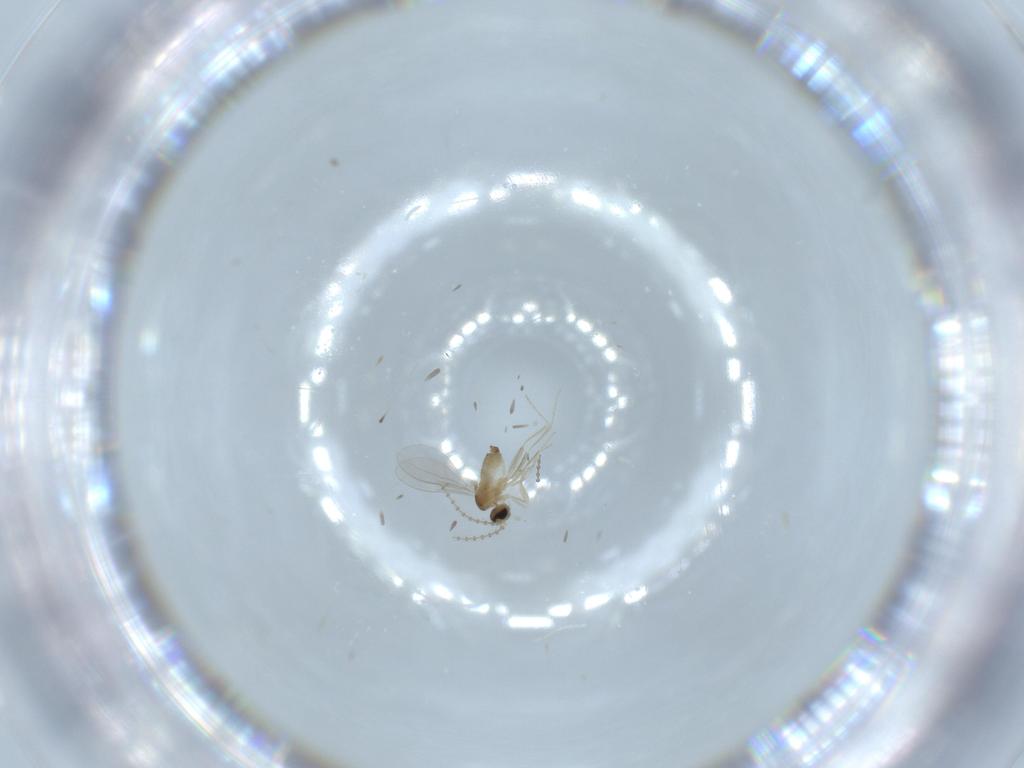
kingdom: Animalia
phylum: Arthropoda
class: Insecta
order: Diptera
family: Cecidomyiidae
